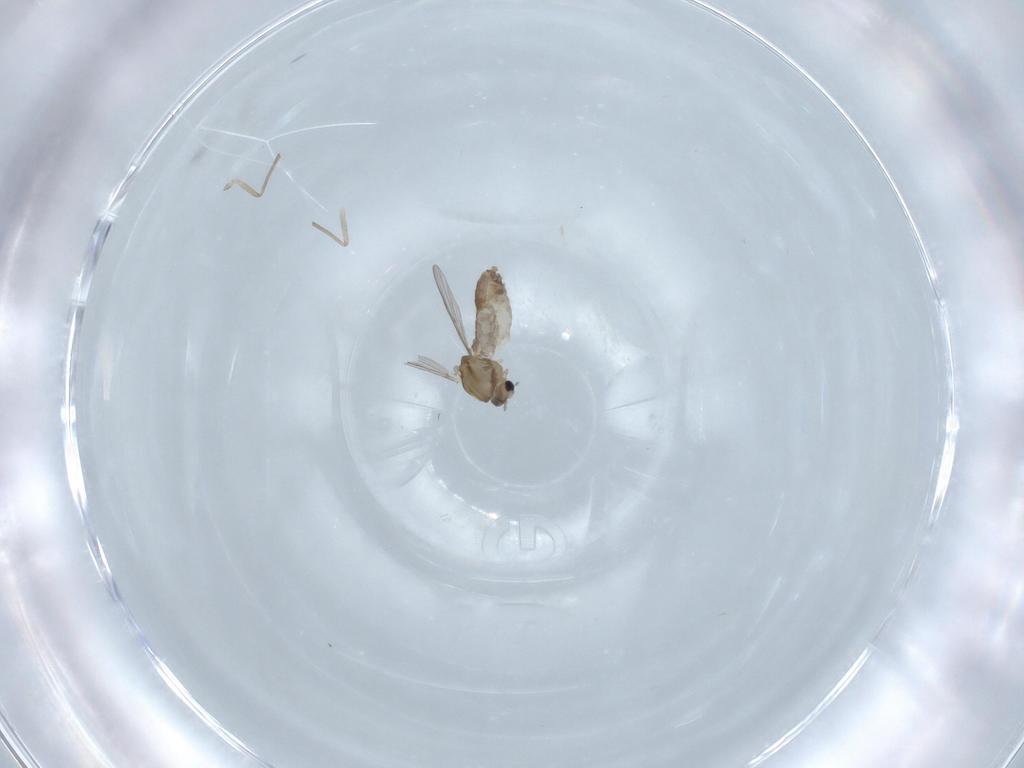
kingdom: Animalia
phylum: Arthropoda
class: Insecta
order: Diptera
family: Chironomidae
